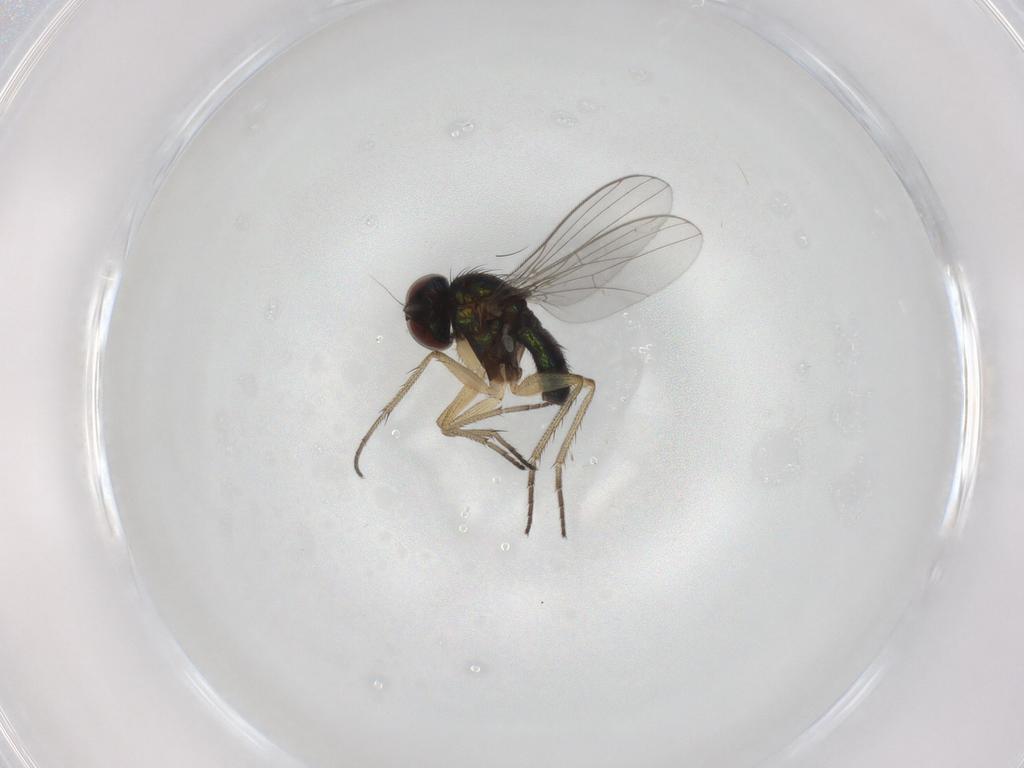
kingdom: Animalia
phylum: Arthropoda
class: Insecta
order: Diptera
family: Sciaridae
